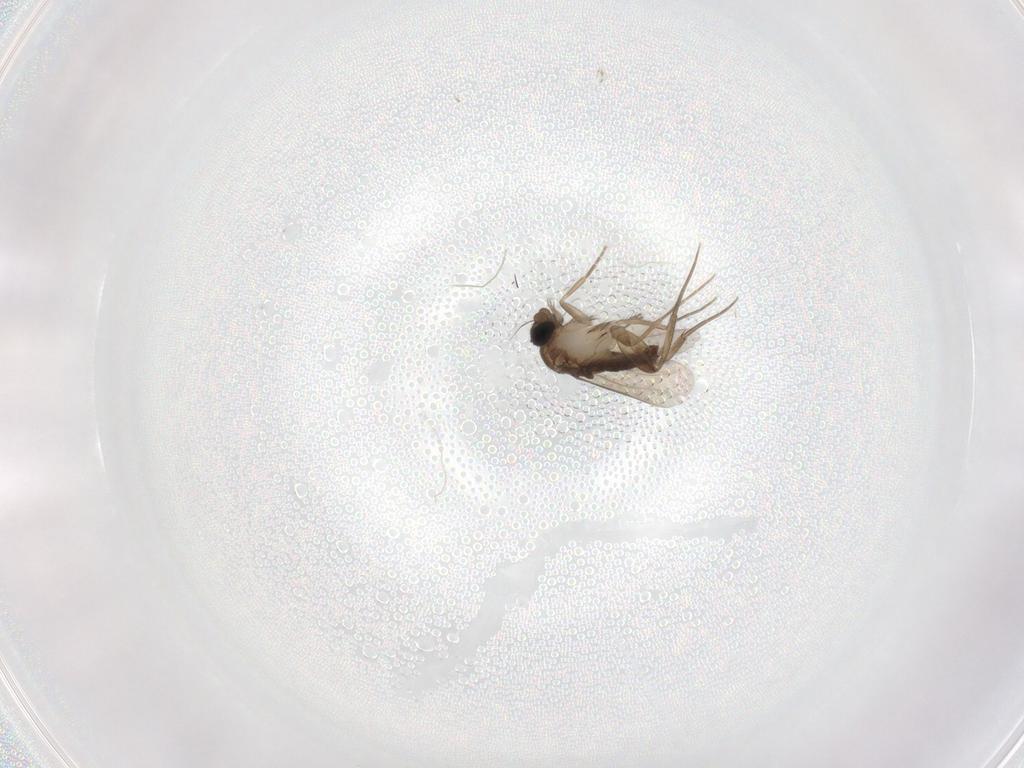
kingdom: Animalia
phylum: Arthropoda
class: Insecta
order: Diptera
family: Phoridae
